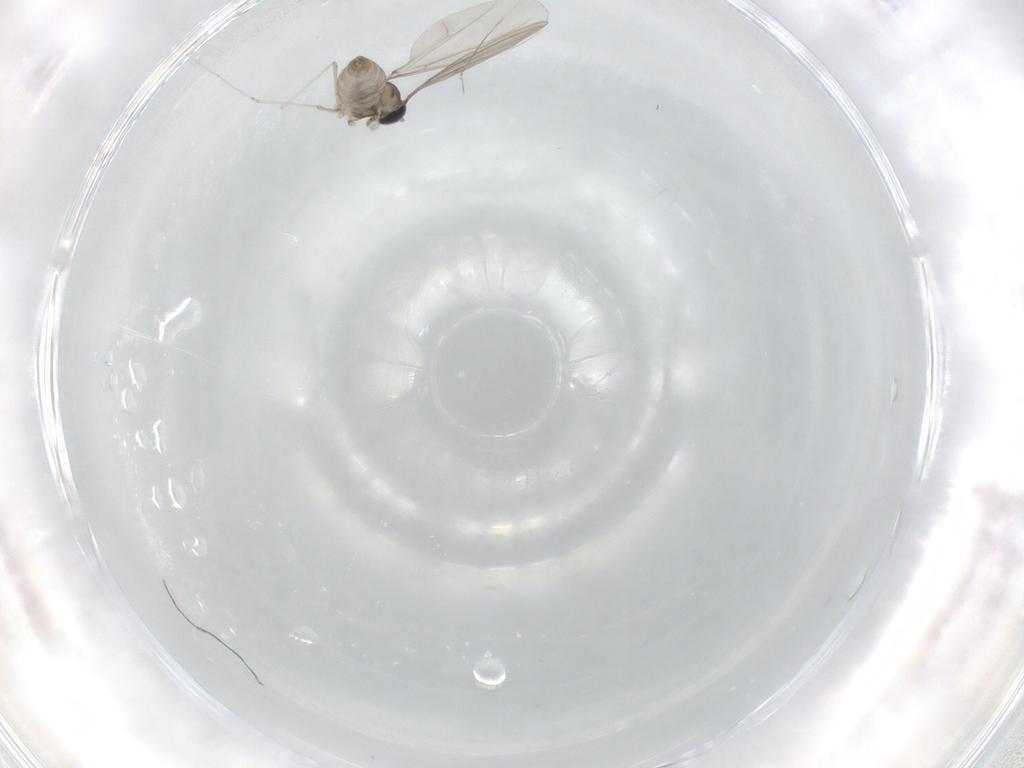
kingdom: Animalia
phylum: Arthropoda
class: Insecta
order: Diptera
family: Cecidomyiidae
